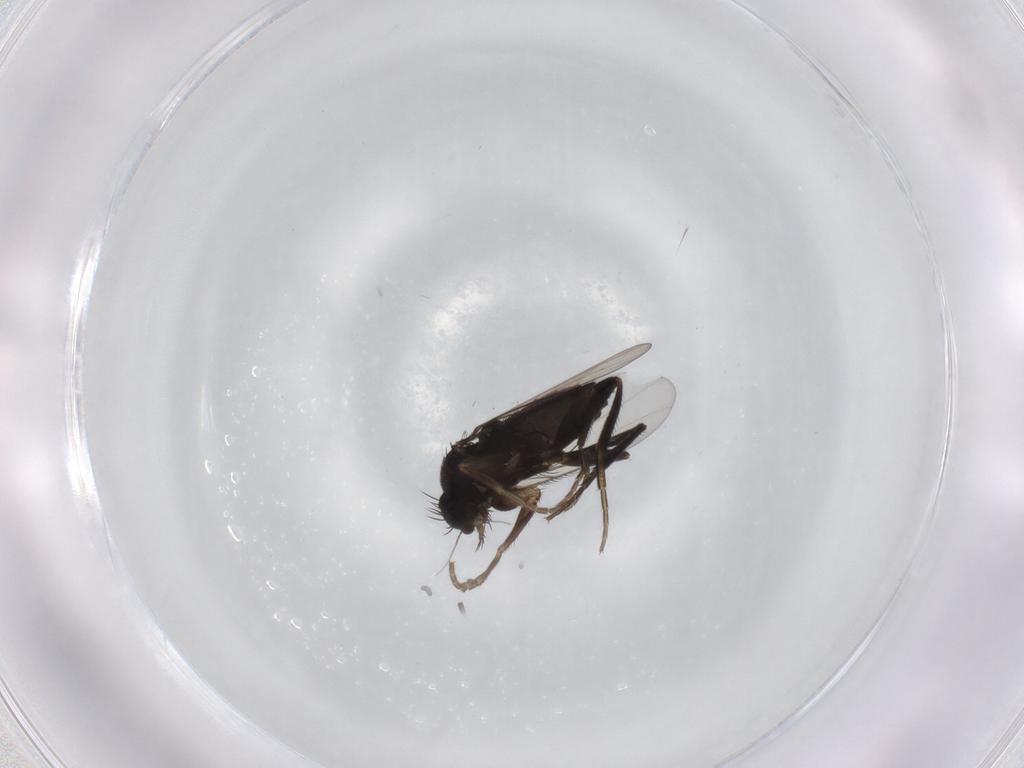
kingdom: Animalia
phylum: Arthropoda
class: Insecta
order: Diptera
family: Phoridae
